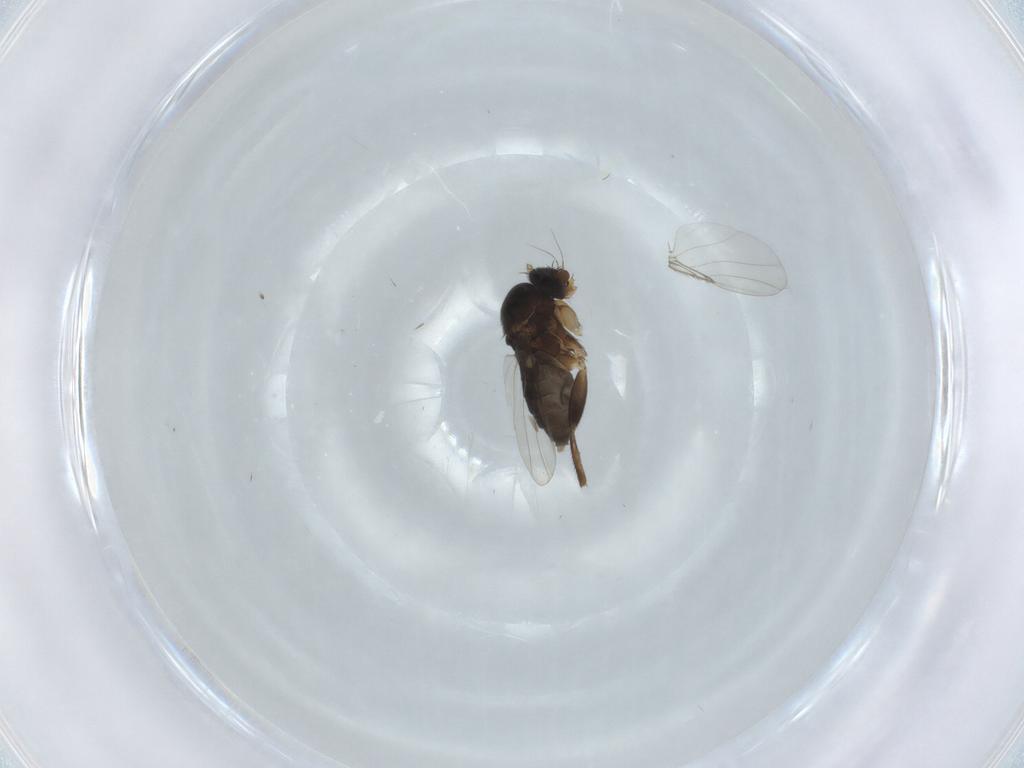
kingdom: Animalia
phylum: Arthropoda
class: Insecta
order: Diptera
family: Phoridae
